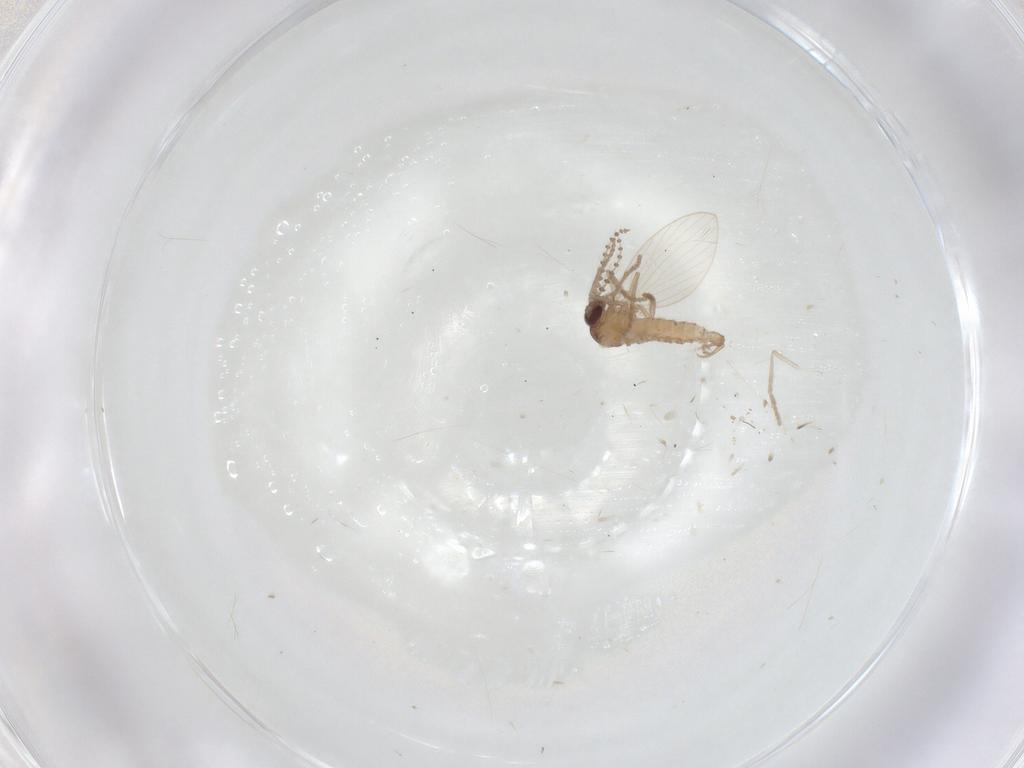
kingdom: Animalia
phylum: Arthropoda
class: Insecta
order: Diptera
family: Psychodidae
